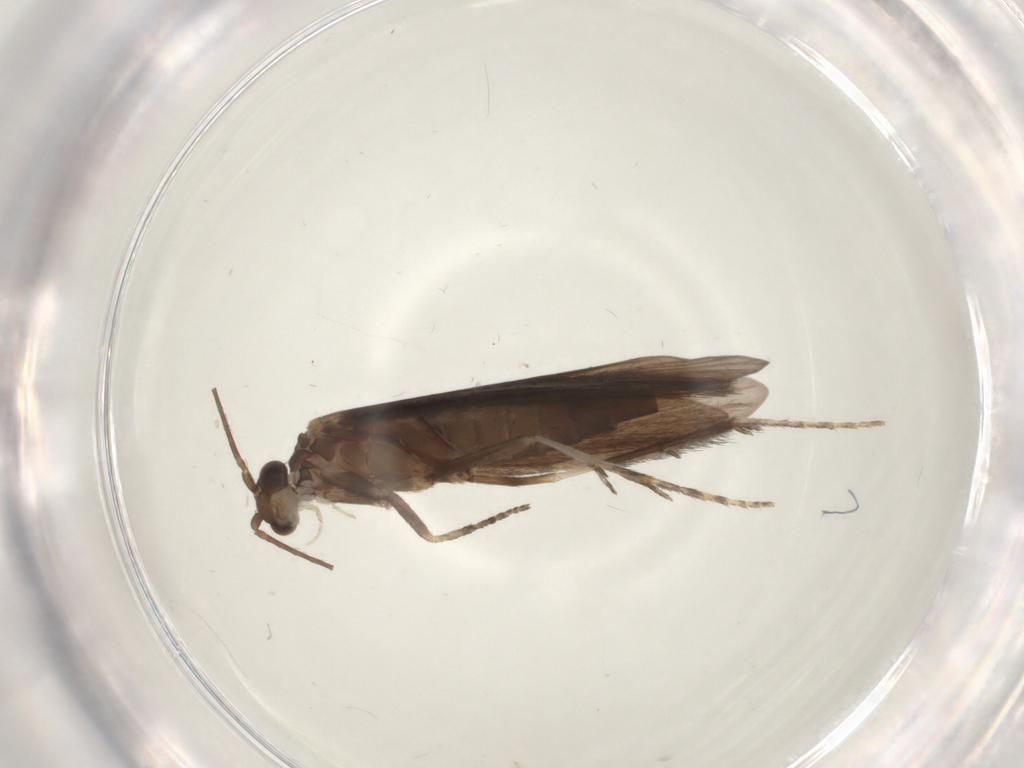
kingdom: Animalia
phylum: Arthropoda
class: Insecta
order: Trichoptera
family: Xiphocentronidae
